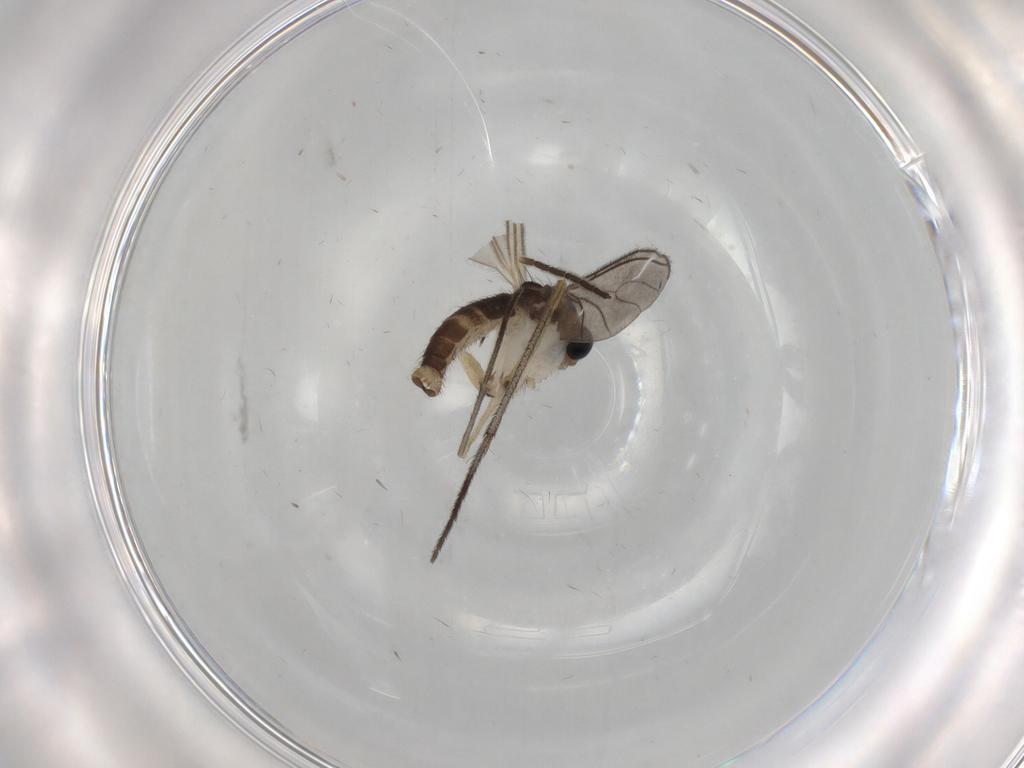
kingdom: Animalia
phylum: Arthropoda
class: Insecta
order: Diptera
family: Sciaridae
